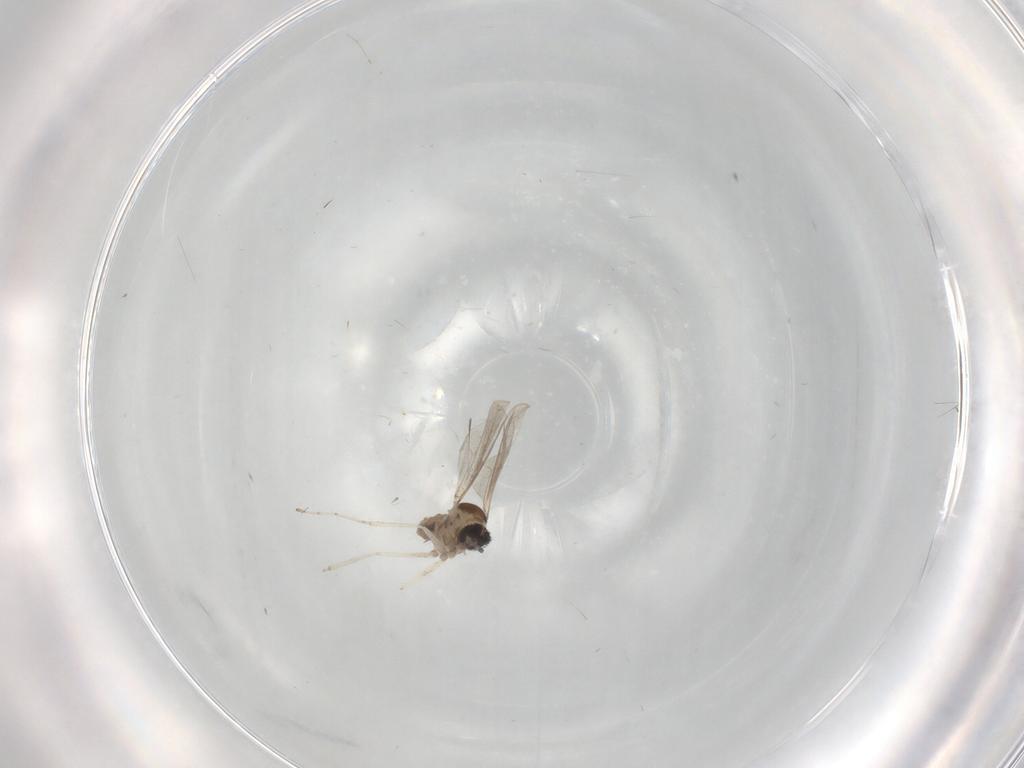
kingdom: Animalia
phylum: Arthropoda
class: Insecta
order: Diptera
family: Cecidomyiidae
